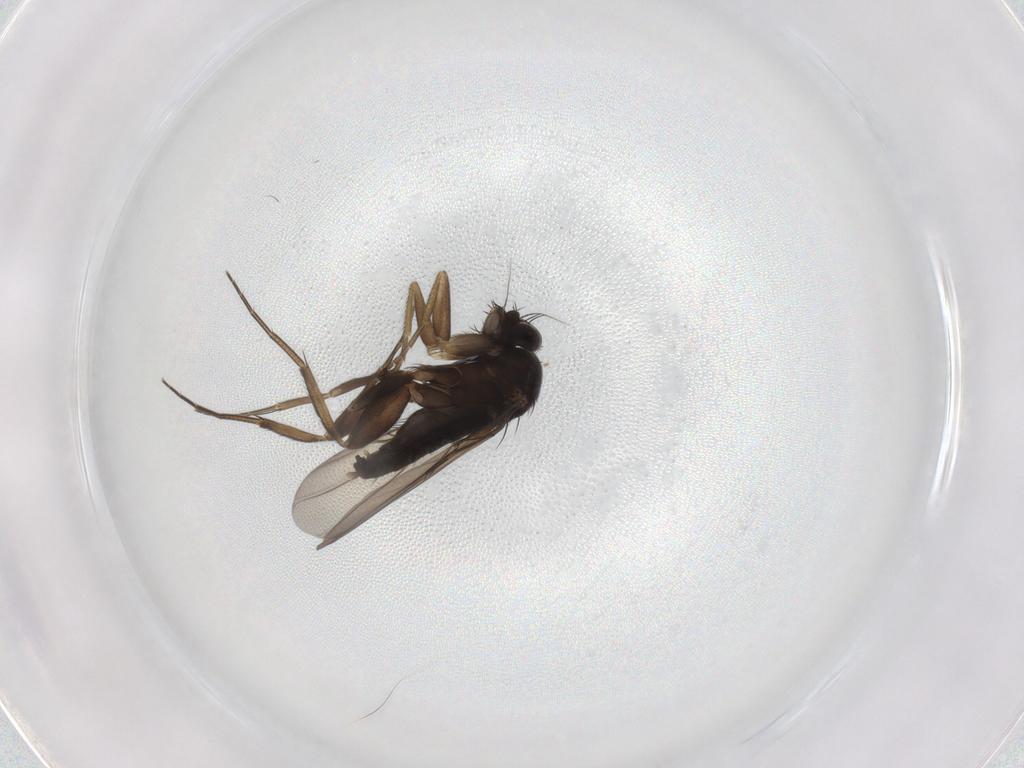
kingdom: Animalia
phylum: Arthropoda
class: Insecta
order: Diptera
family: Phoridae
